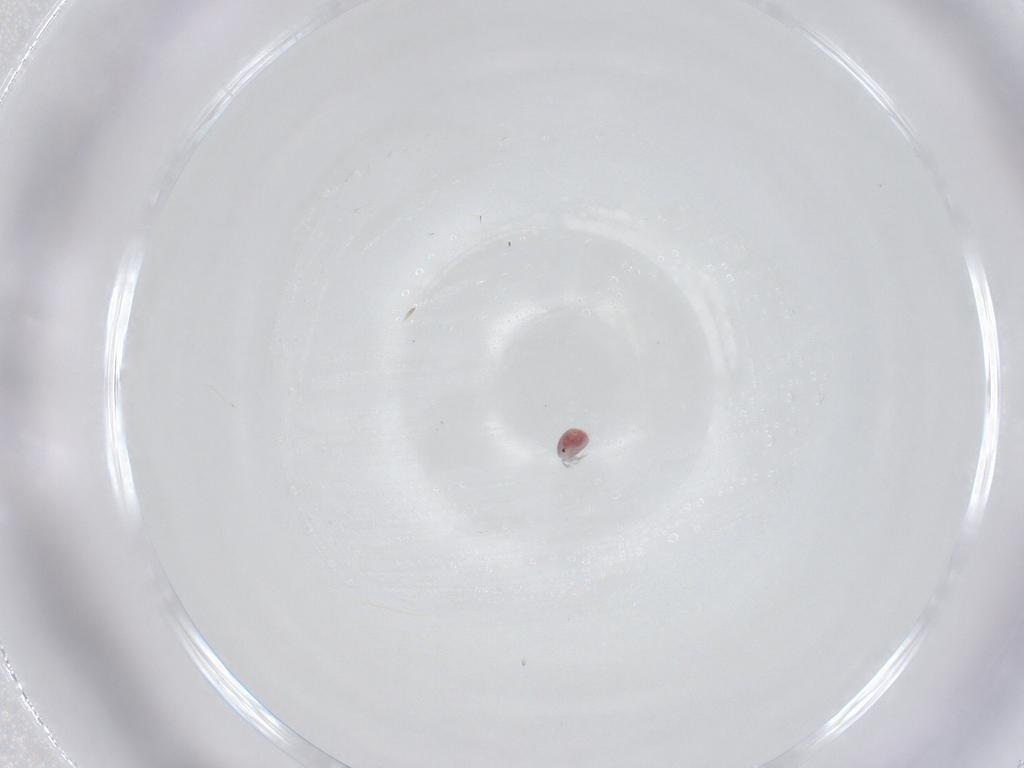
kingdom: Animalia
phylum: Arthropoda
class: Arachnida
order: Trombidiformes
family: Pionidae
